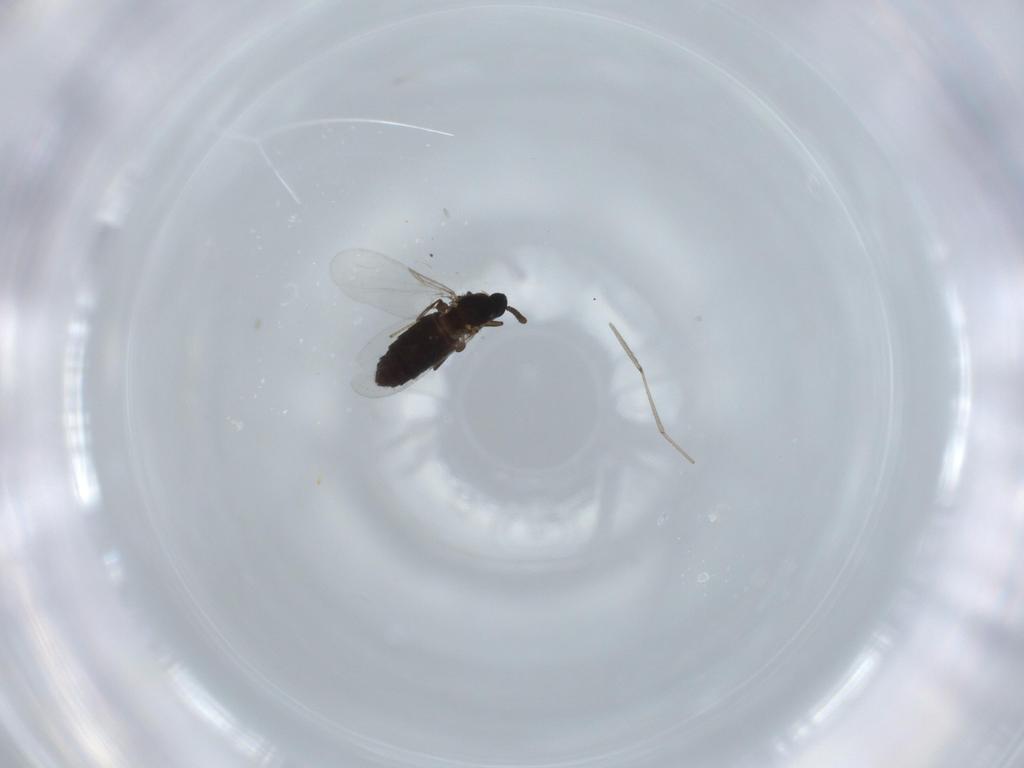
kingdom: Animalia
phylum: Arthropoda
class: Insecta
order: Diptera
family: Scatopsidae
